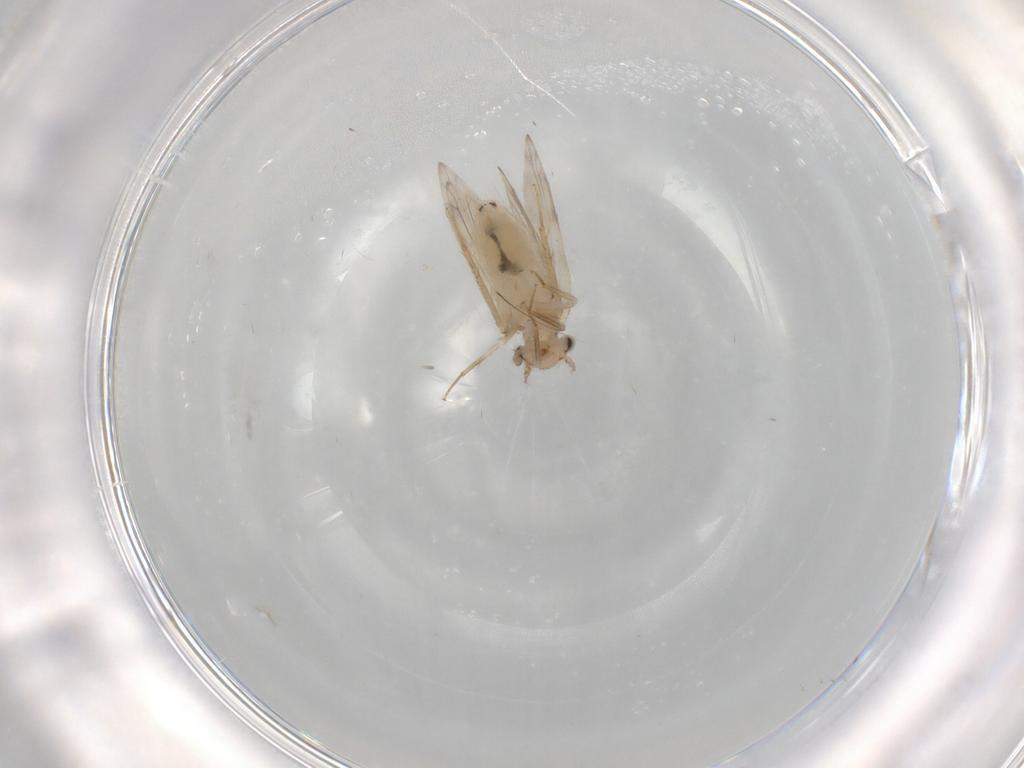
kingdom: Animalia
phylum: Arthropoda
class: Insecta
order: Psocodea
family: Lepidopsocidae
